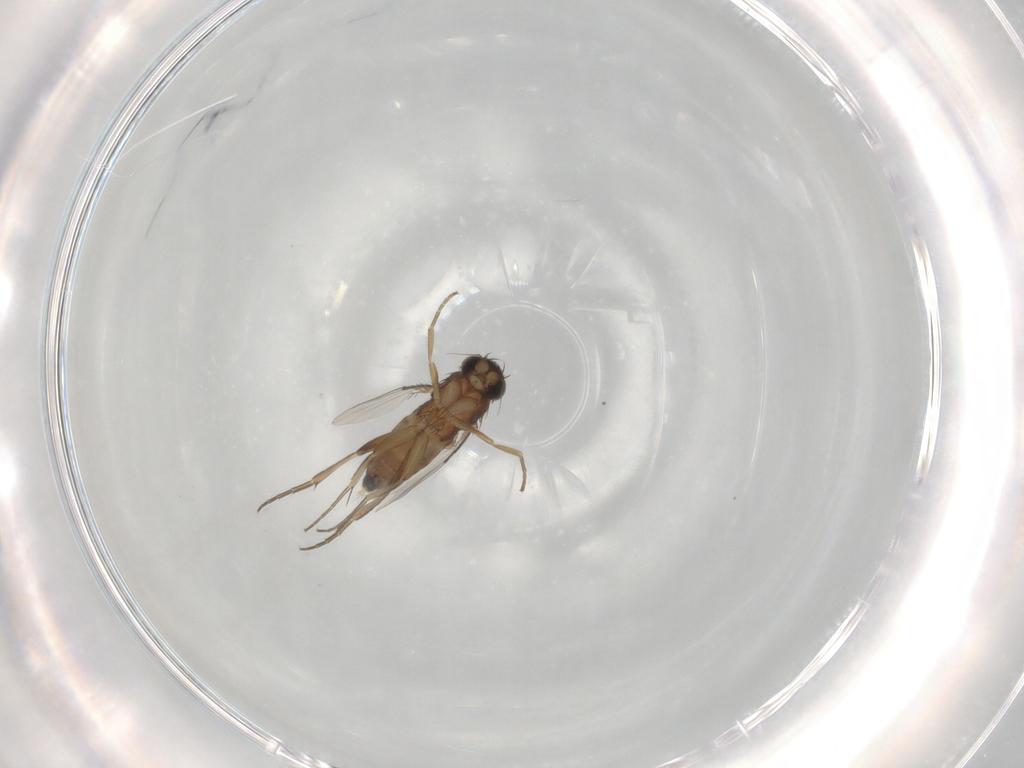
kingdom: Animalia
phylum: Arthropoda
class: Insecta
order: Diptera
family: Phoridae
